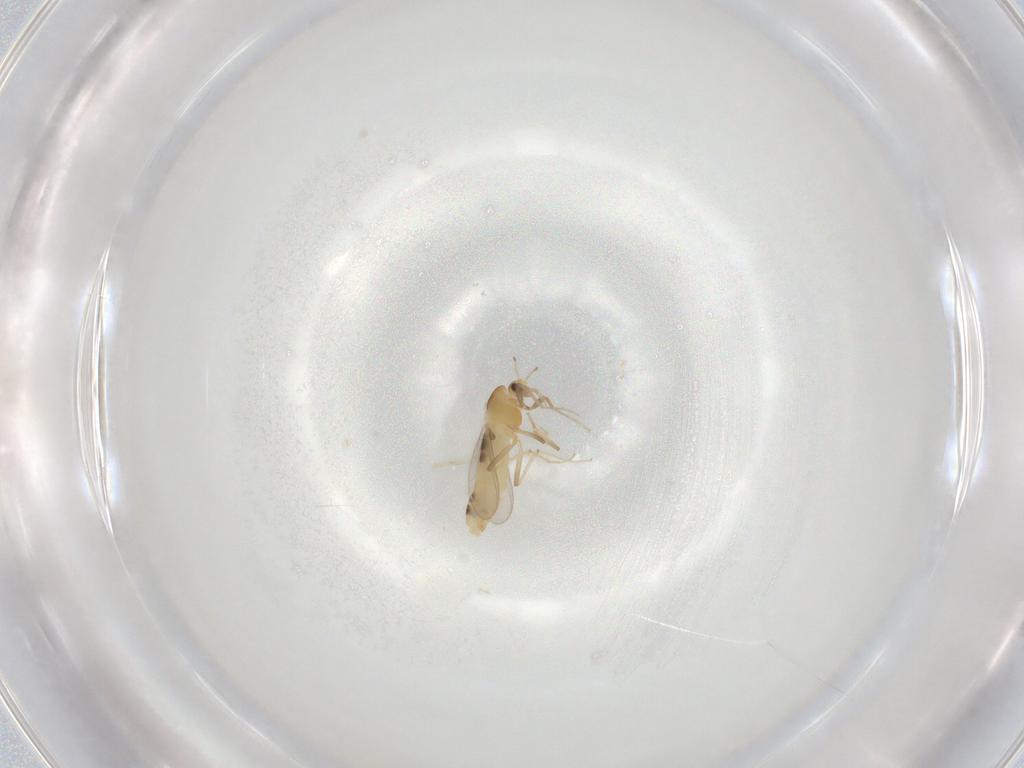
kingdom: Animalia
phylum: Arthropoda
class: Insecta
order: Diptera
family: Chironomidae
